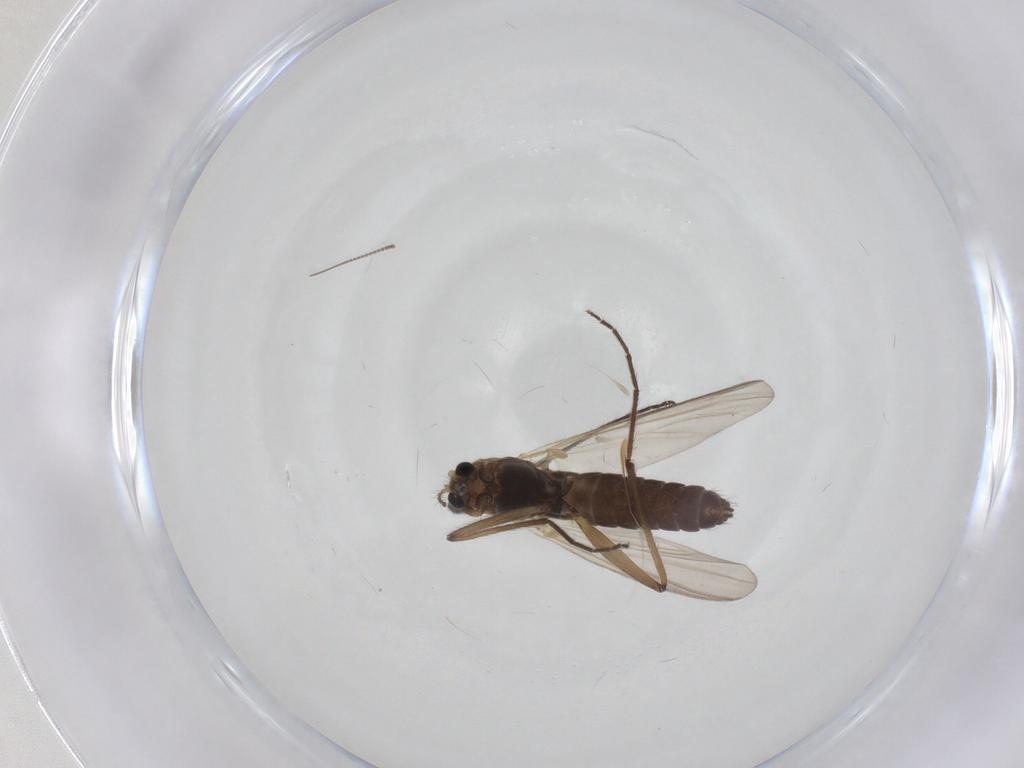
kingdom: Animalia
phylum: Arthropoda
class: Insecta
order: Diptera
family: Chironomidae
